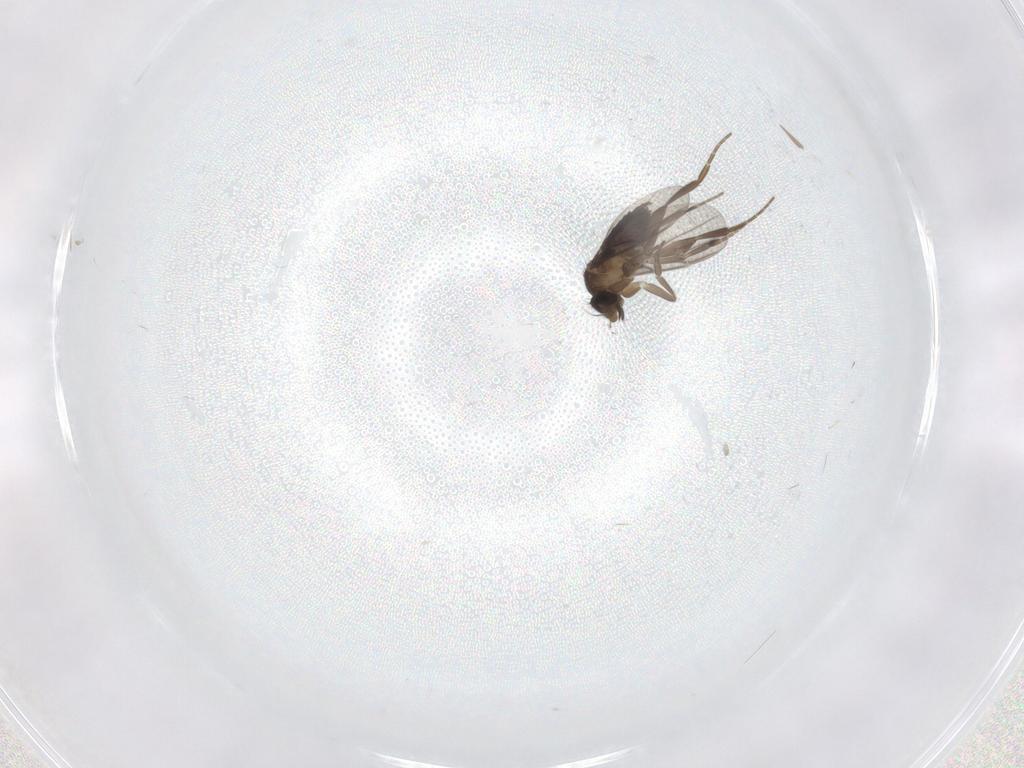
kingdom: Animalia
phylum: Arthropoda
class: Insecta
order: Diptera
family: Phoridae
